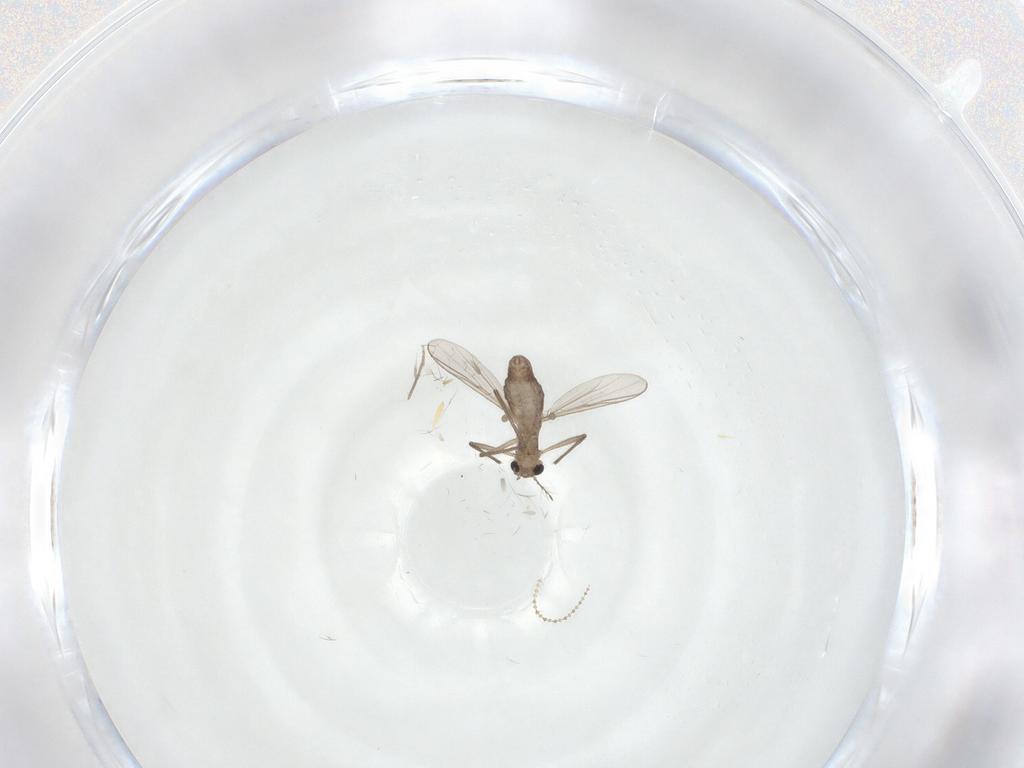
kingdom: Animalia
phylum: Arthropoda
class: Insecta
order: Diptera
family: Chironomidae
